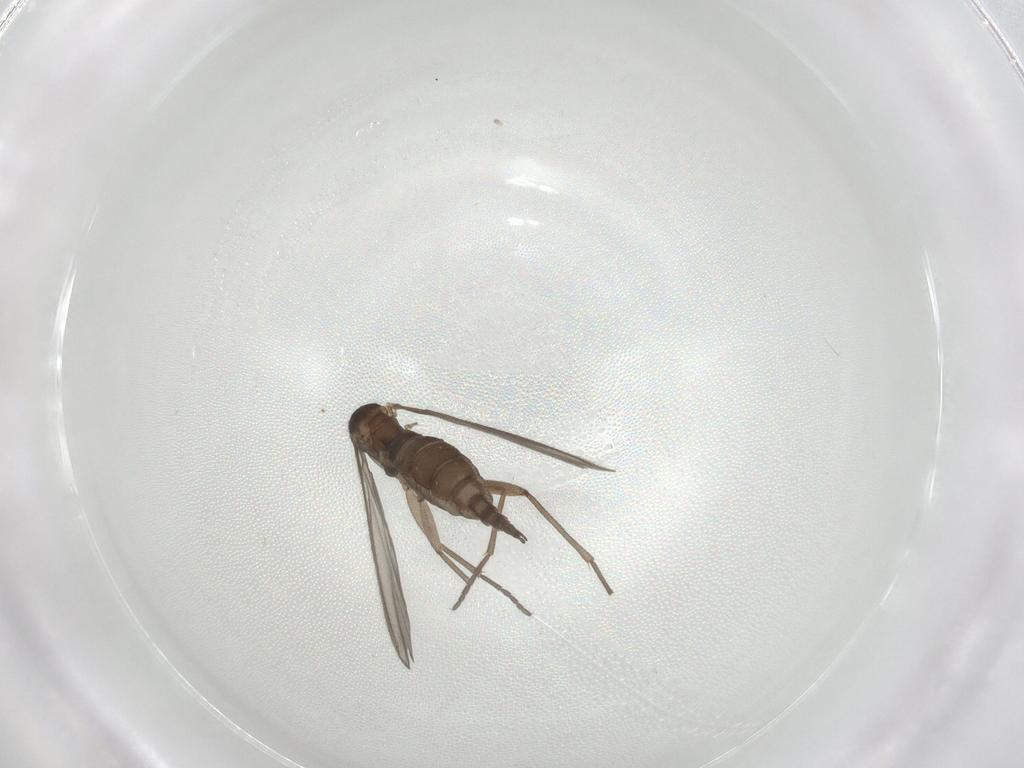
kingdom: Animalia
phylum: Arthropoda
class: Insecta
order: Diptera
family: Sciaridae
